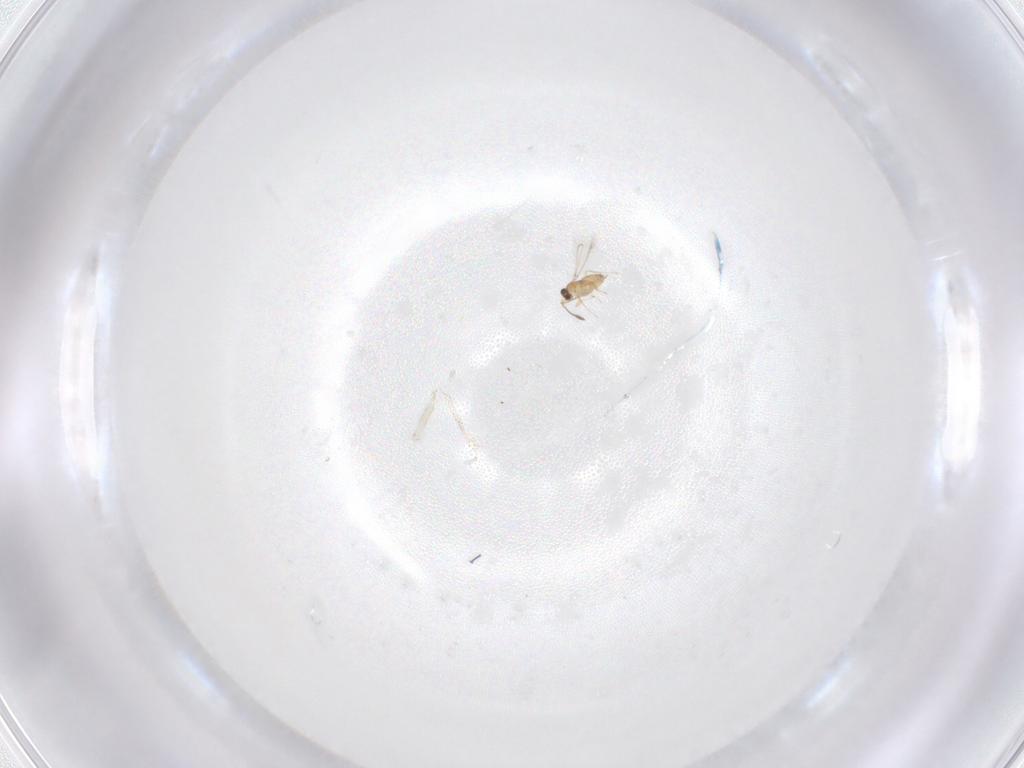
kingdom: Animalia
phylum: Arthropoda
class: Insecta
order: Hymenoptera
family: Mymaridae
